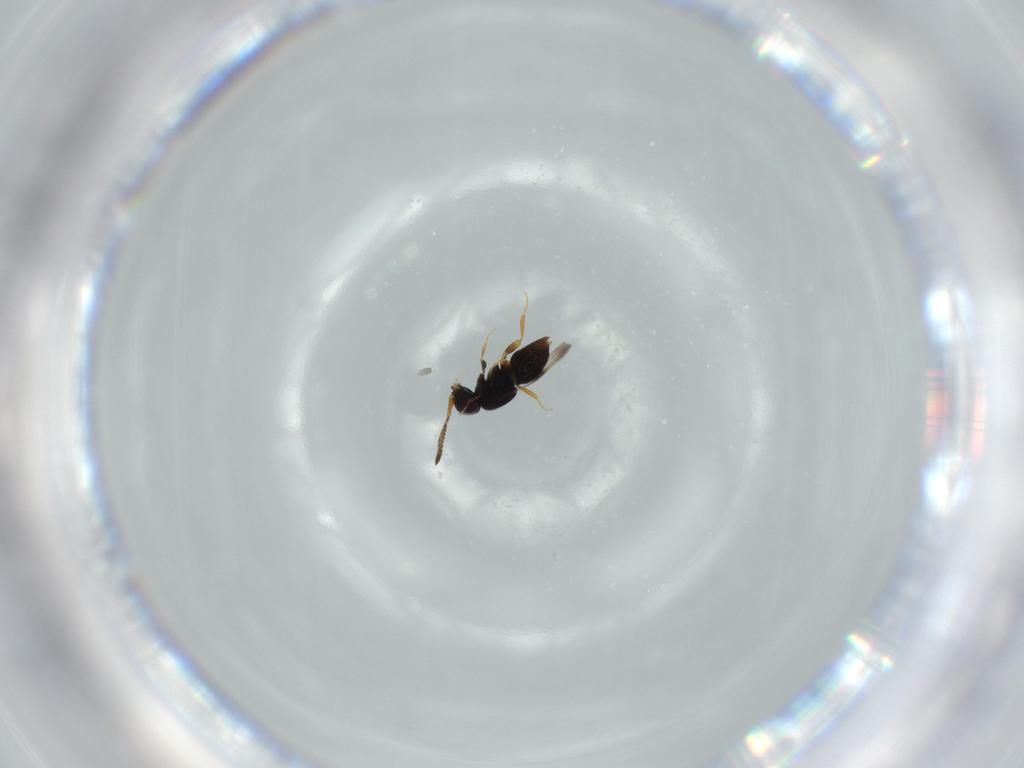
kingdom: Animalia
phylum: Arthropoda
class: Insecta
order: Hymenoptera
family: Ceraphronidae
